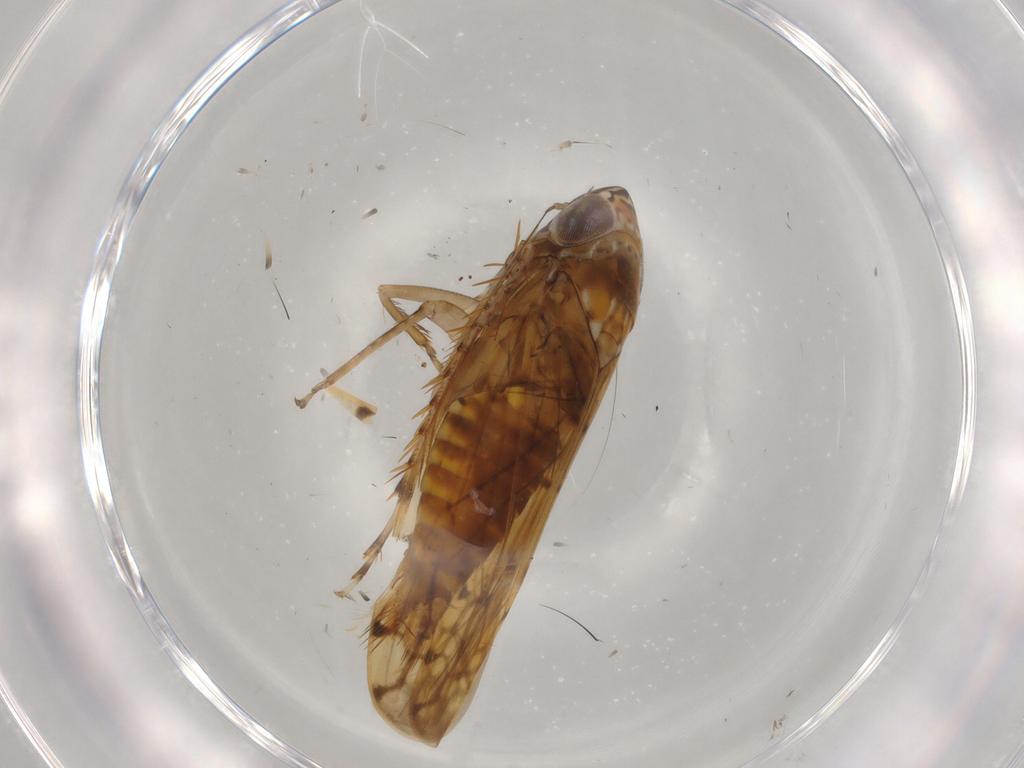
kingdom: Animalia
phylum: Arthropoda
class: Insecta
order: Hemiptera
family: Cicadellidae
